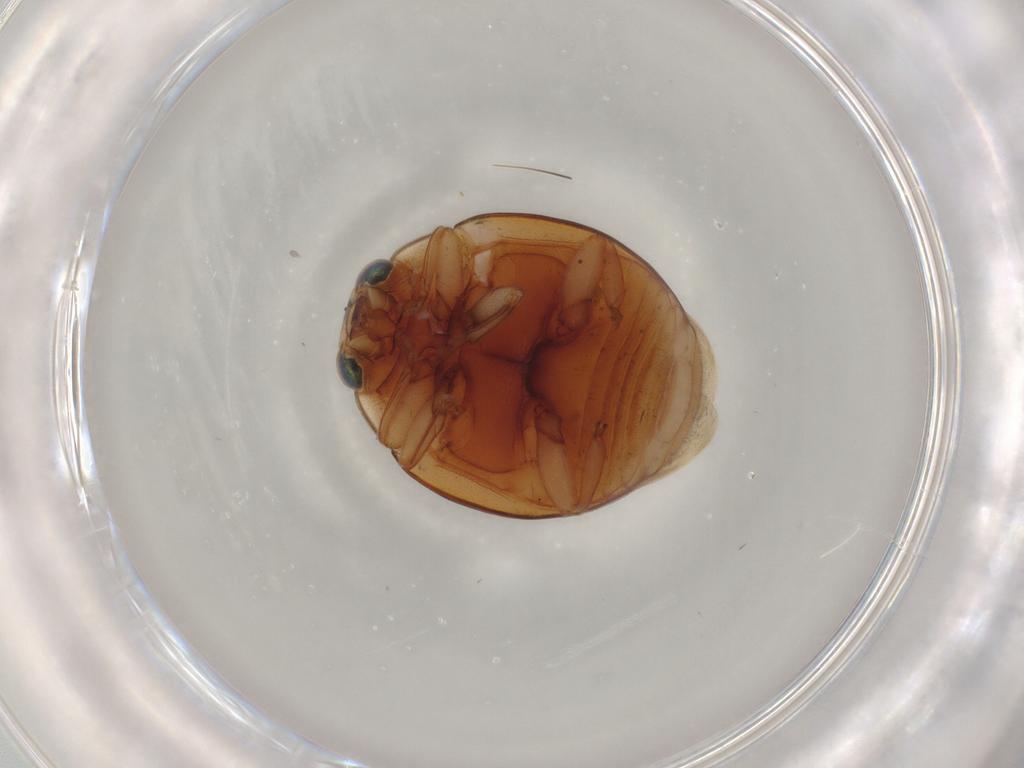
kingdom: Animalia
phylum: Arthropoda
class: Insecta
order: Coleoptera
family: Coccinellidae
